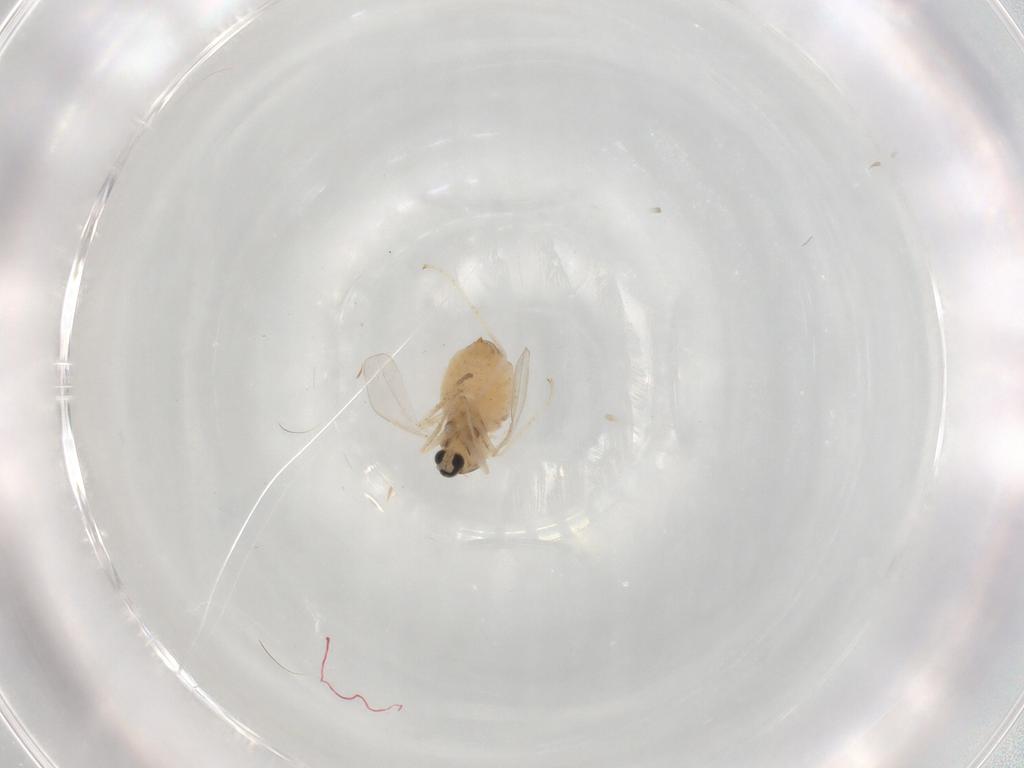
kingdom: Animalia
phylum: Arthropoda
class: Insecta
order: Diptera
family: Cecidomyiidae
